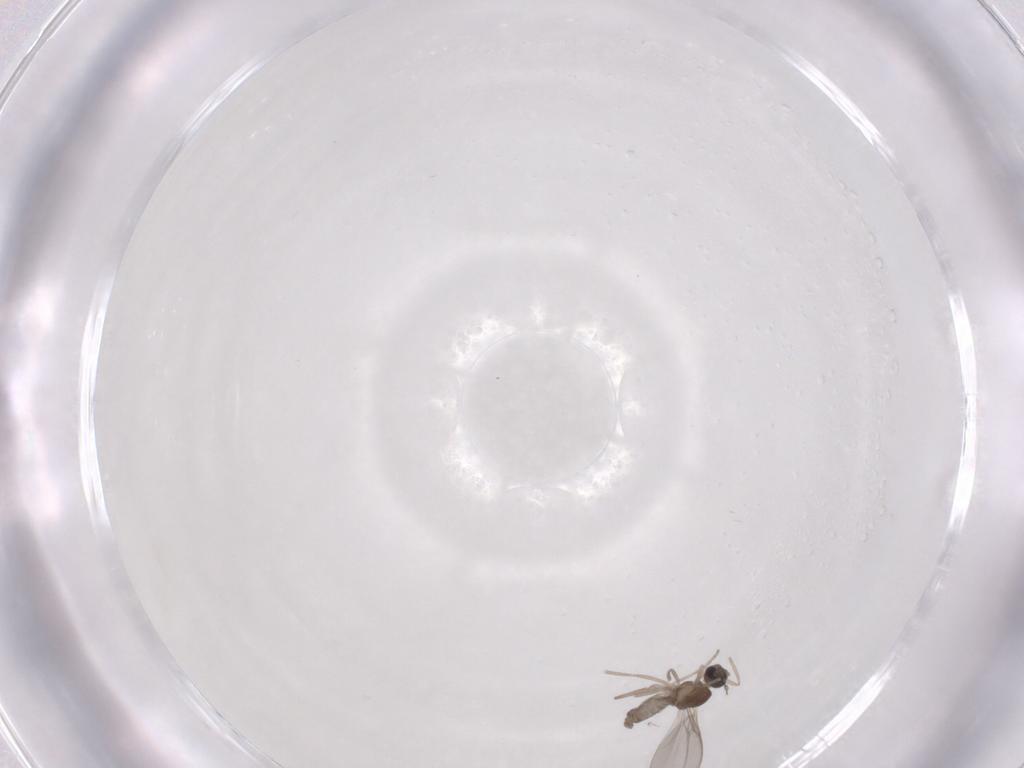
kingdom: Animalia
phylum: Arthropoda
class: Insecta
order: Diptera
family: Cecidomyiidae
